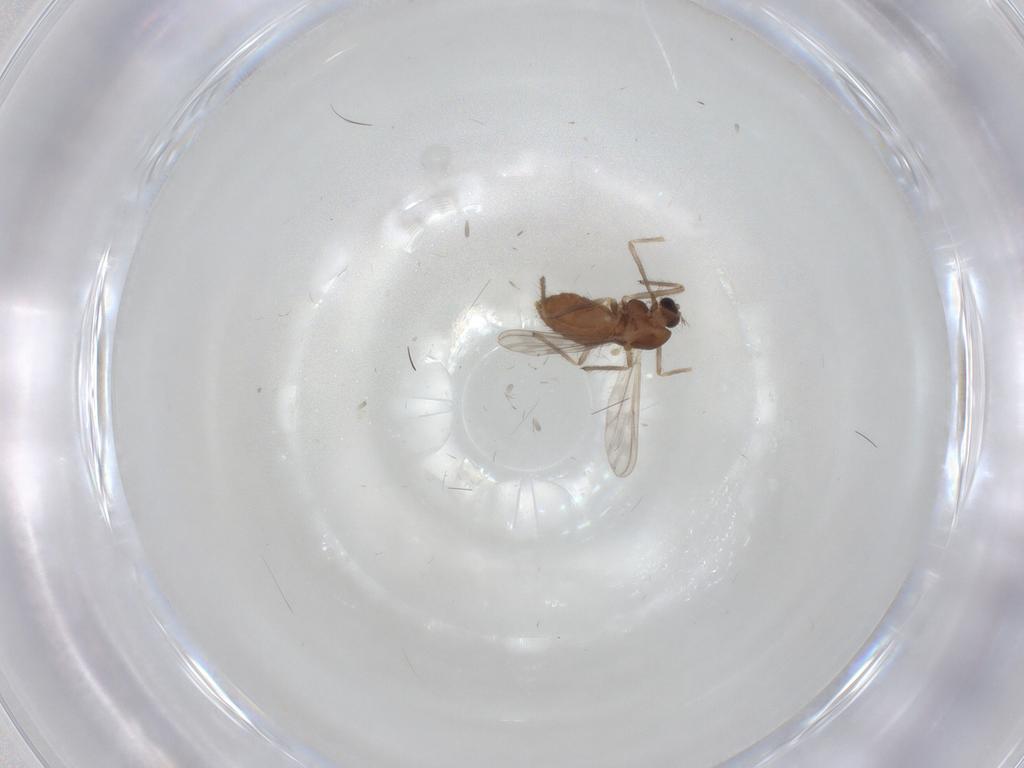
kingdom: Animalia
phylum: Arthropoda
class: Insecta
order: Diptera
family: Chironomidae
